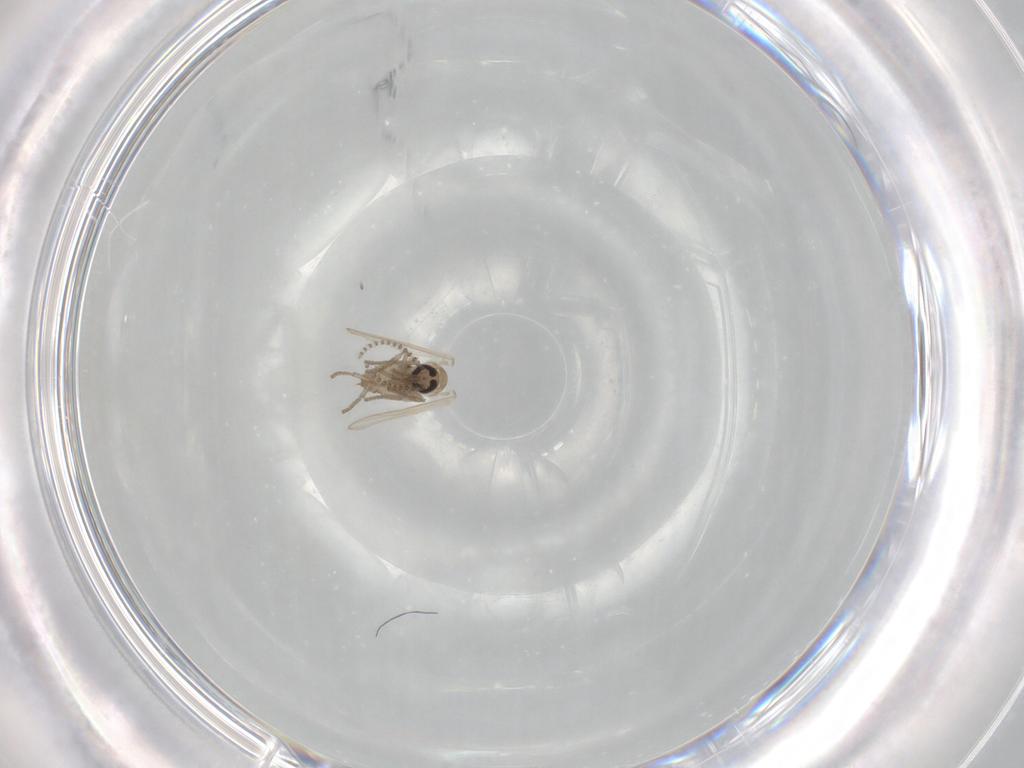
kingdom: Animalia
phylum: Arthropoda
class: Insecta
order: Diptera
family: Psychodidae
